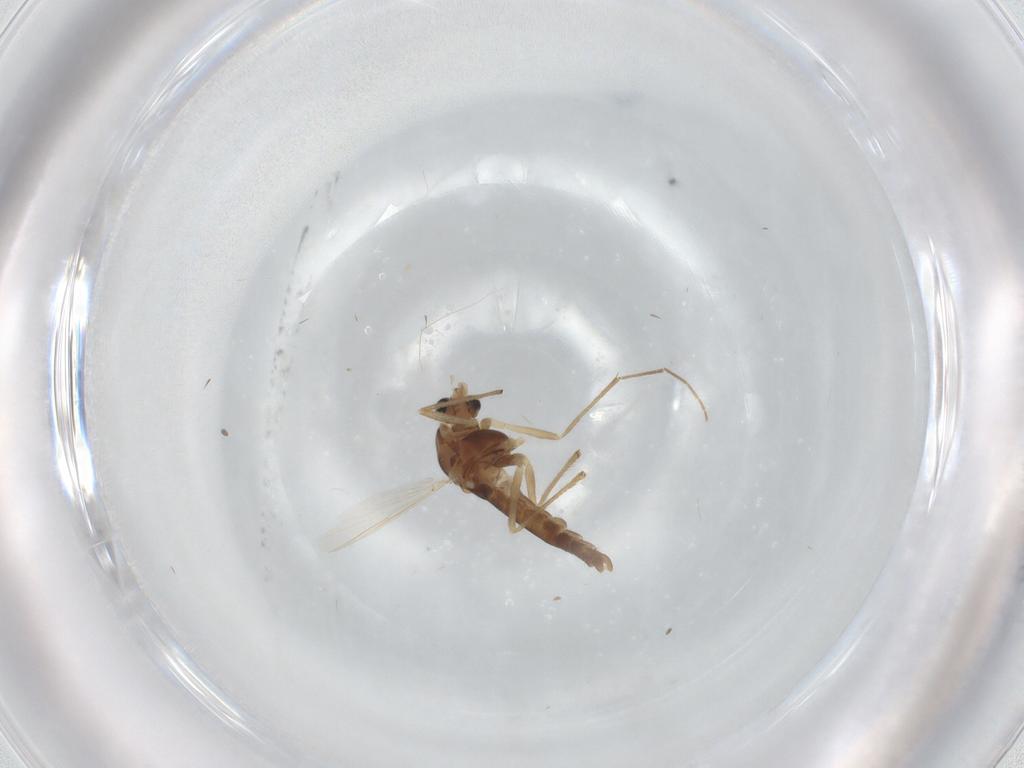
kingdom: Animalia
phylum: Arthropoda
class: Insecta
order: Diptera
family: Chironomidae
